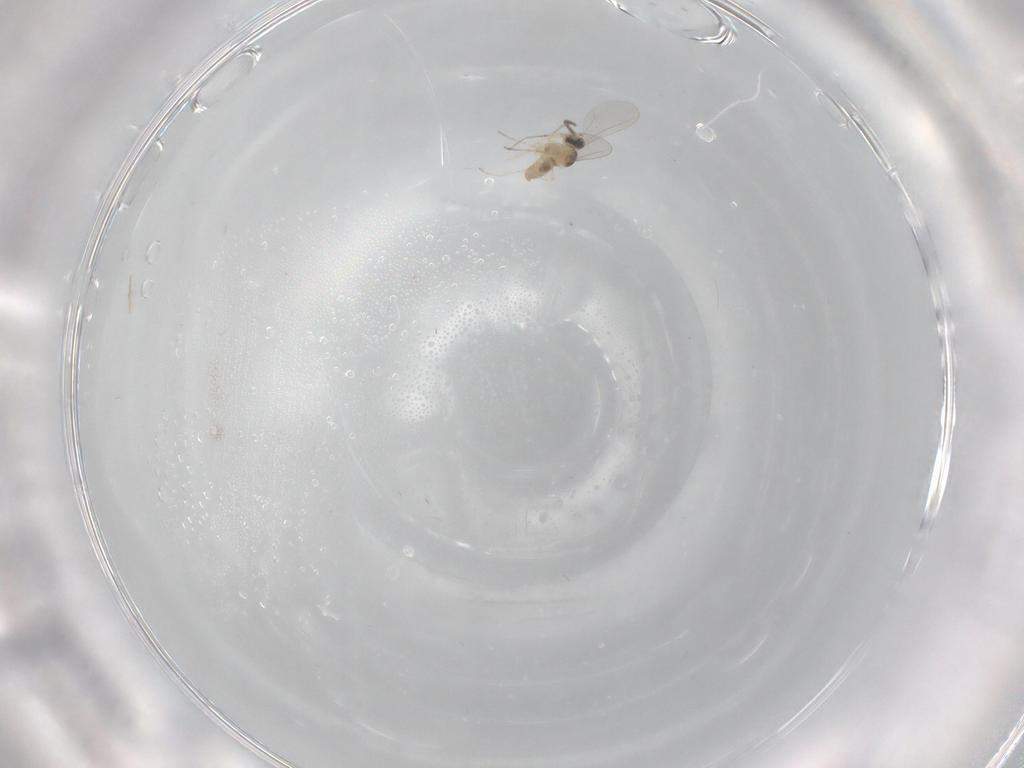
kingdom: Animalia
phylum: Arthropoda
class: Insecta
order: Diptera
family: Cecidomyiidae
